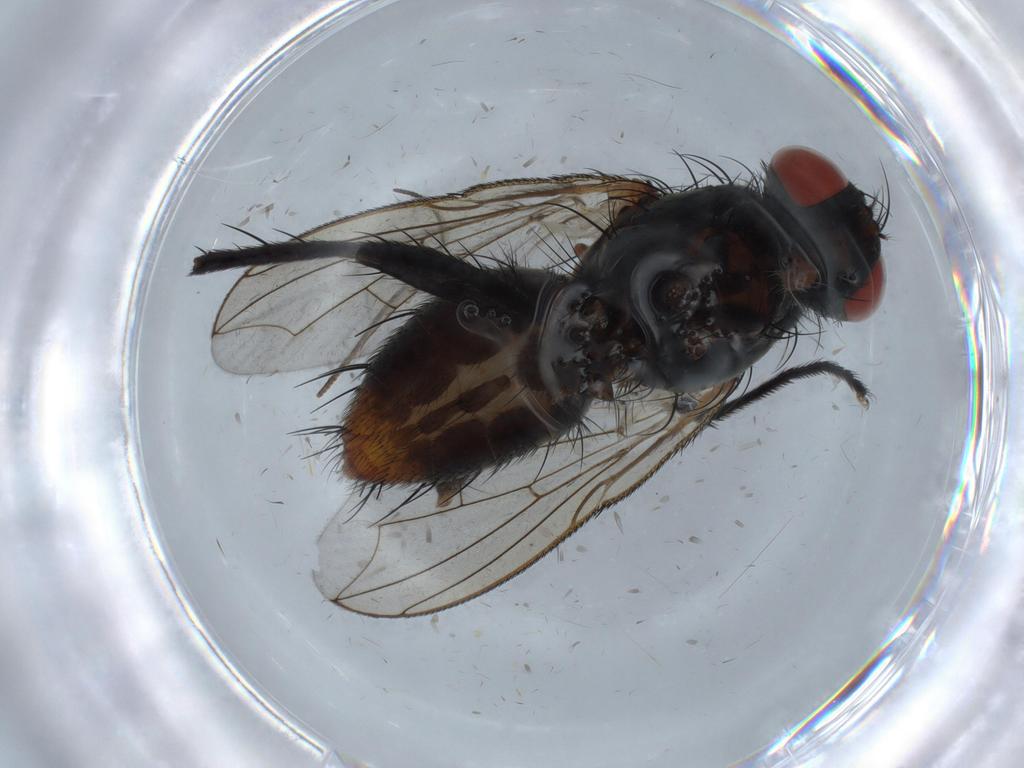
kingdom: Animalia
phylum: Arthropoda
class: Insecta
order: Diptera
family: Sarcophagidae
